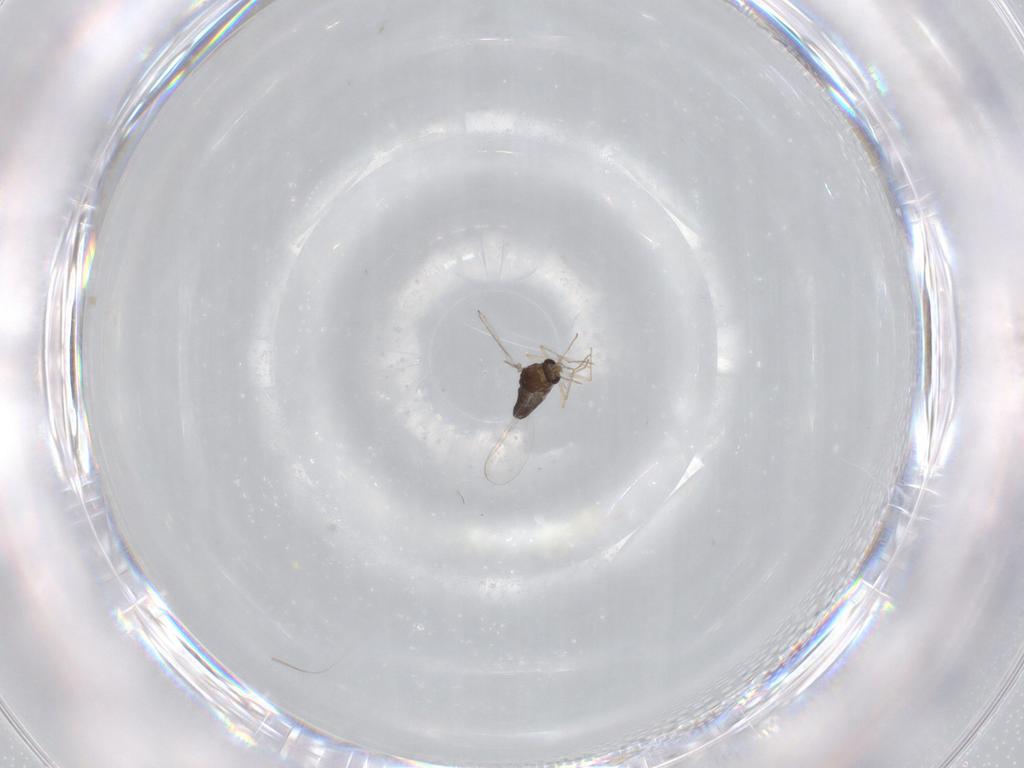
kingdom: Animalia
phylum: Arthropoda
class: Insecta
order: Diptera
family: Chironomidae
